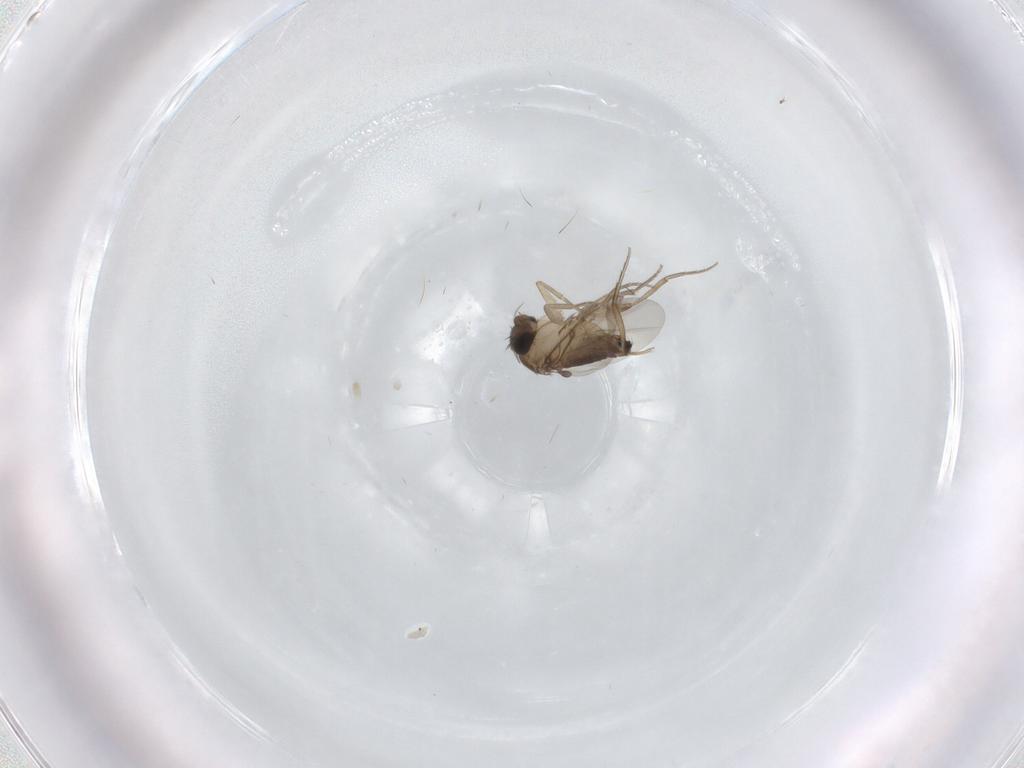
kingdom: Animalia
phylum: Arthropoda
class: Insecta
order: Diptera
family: Phoridae
